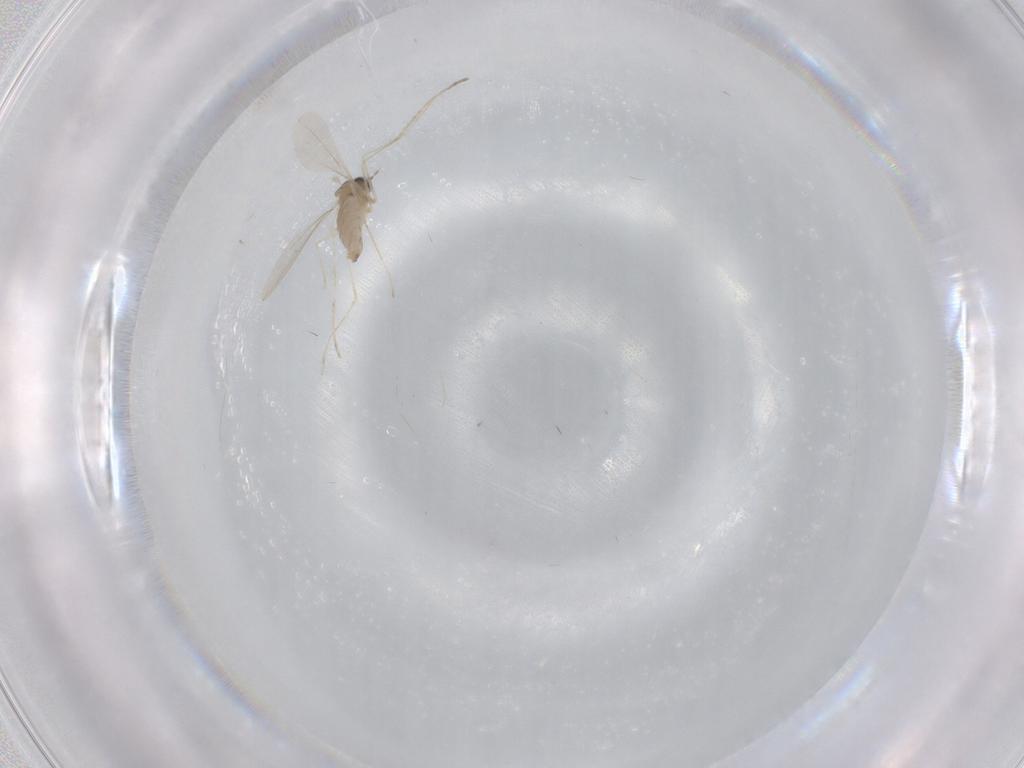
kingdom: Animalia
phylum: Arthropoda
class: Insecta
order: Diptera
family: Cecidomyiidae
